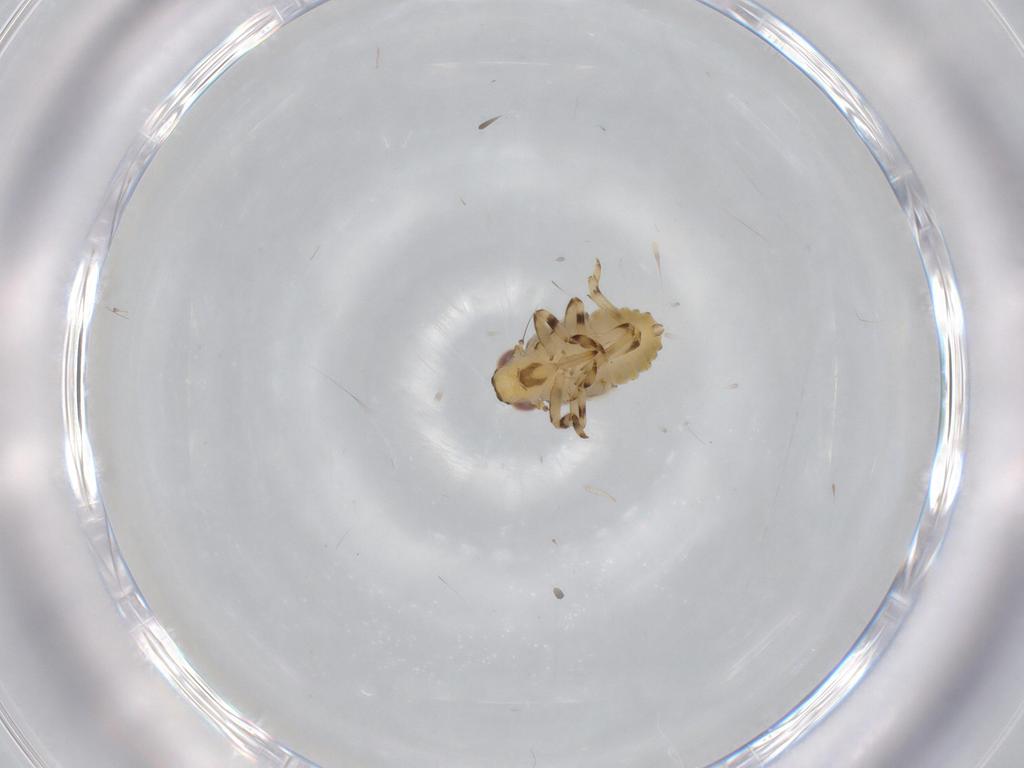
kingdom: Animalia
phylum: Arthropoda
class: Insecta
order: Hemiptera
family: Issidae
